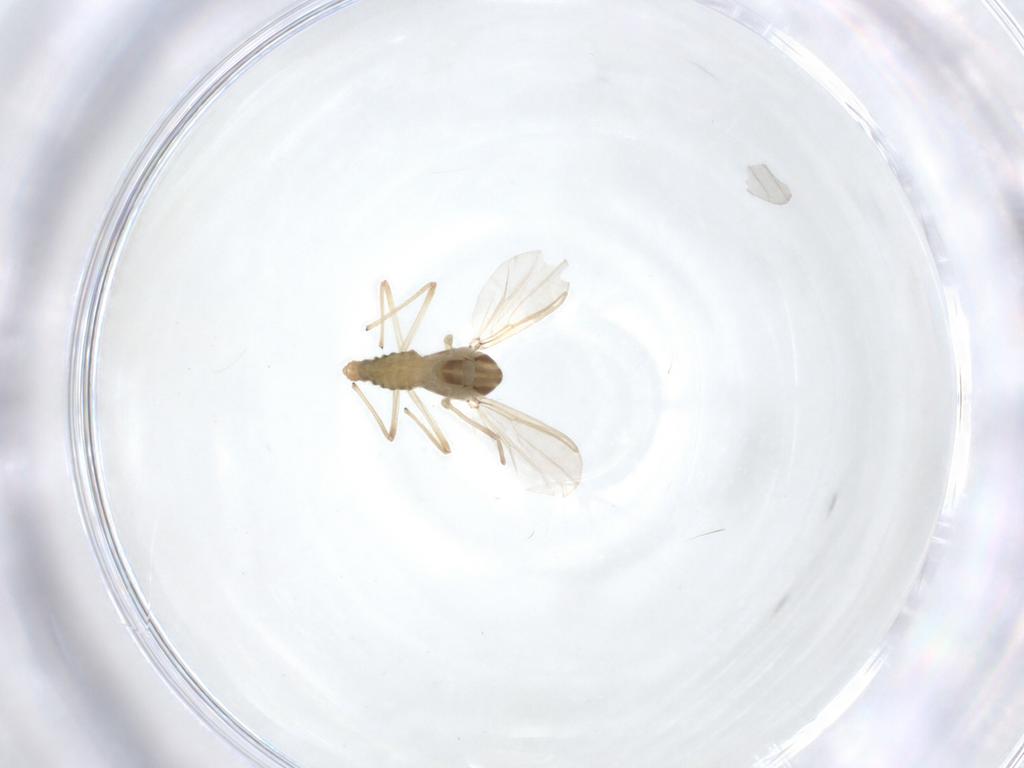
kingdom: Animalia
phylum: Arthropoda
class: Insecta
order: Diptera
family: Chironomidae
